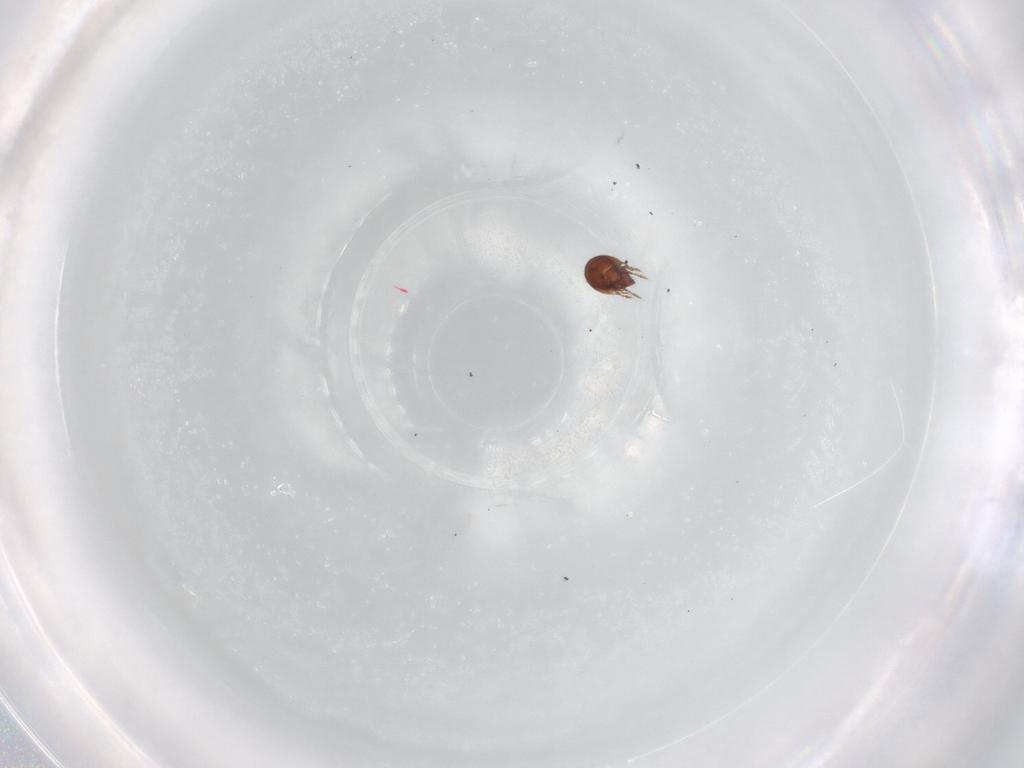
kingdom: Animalia
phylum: Arthropoda
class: Arachnida
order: Sarcoptiformes
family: Ceratozetidae
